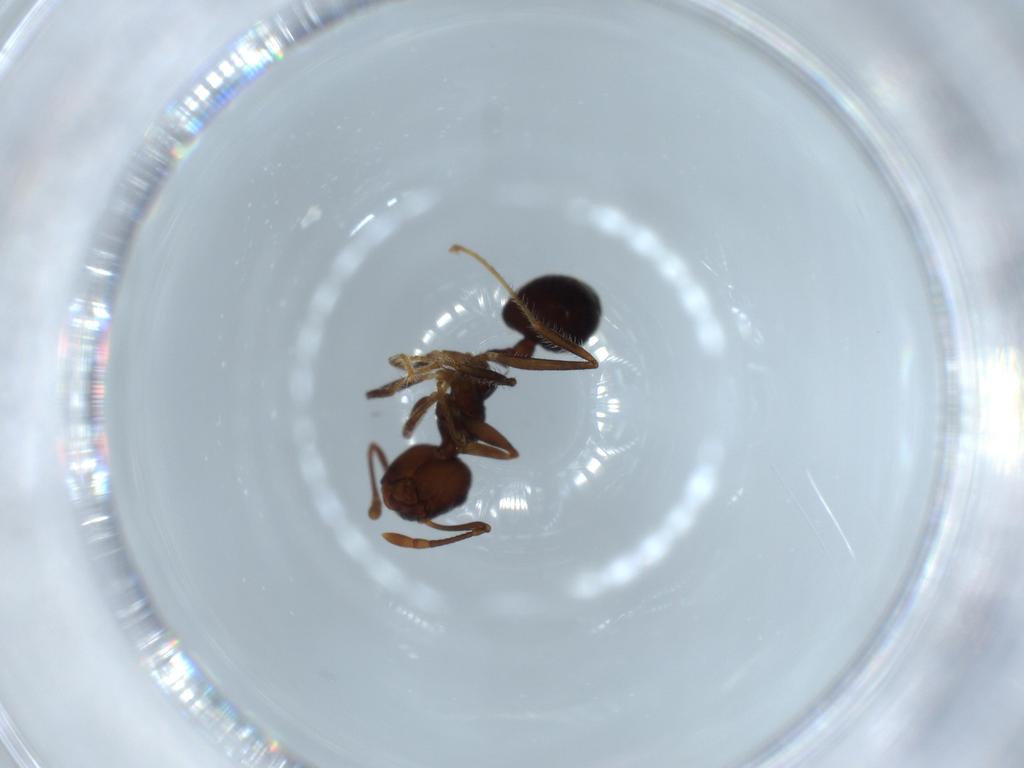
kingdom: Animalia
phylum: Arthropoda
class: Insecta
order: Hymenoptera
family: Formicidae
